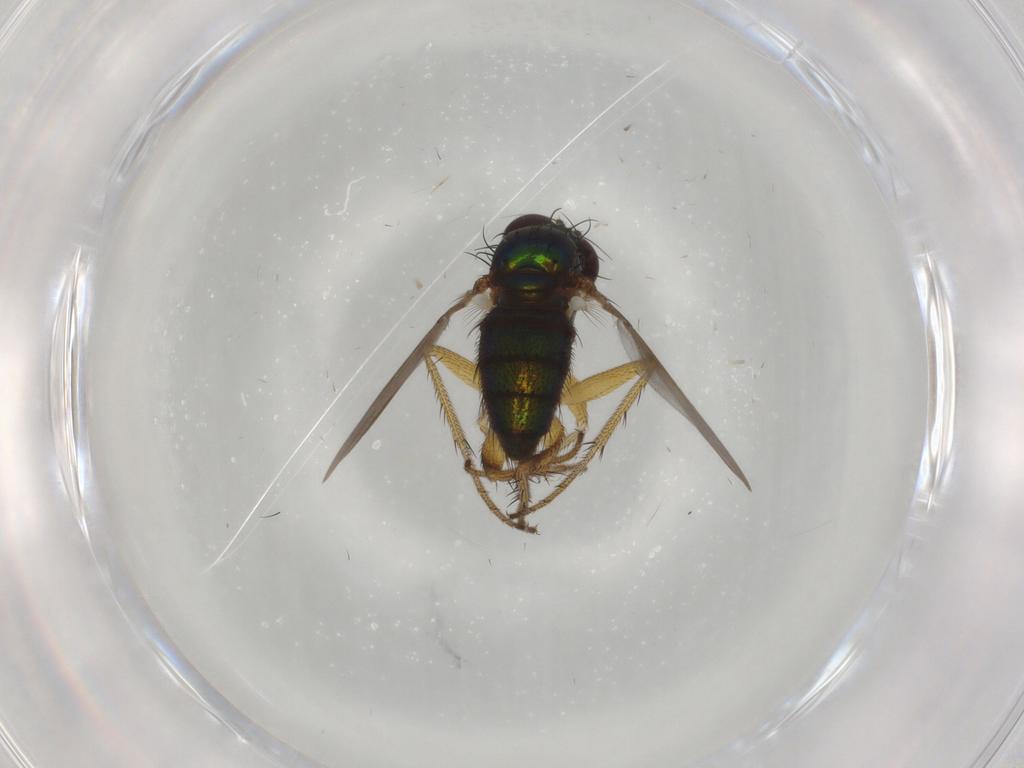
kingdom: Animalia
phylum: Arthropoda
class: Insecta
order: Diptera
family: Dolichopodidae
